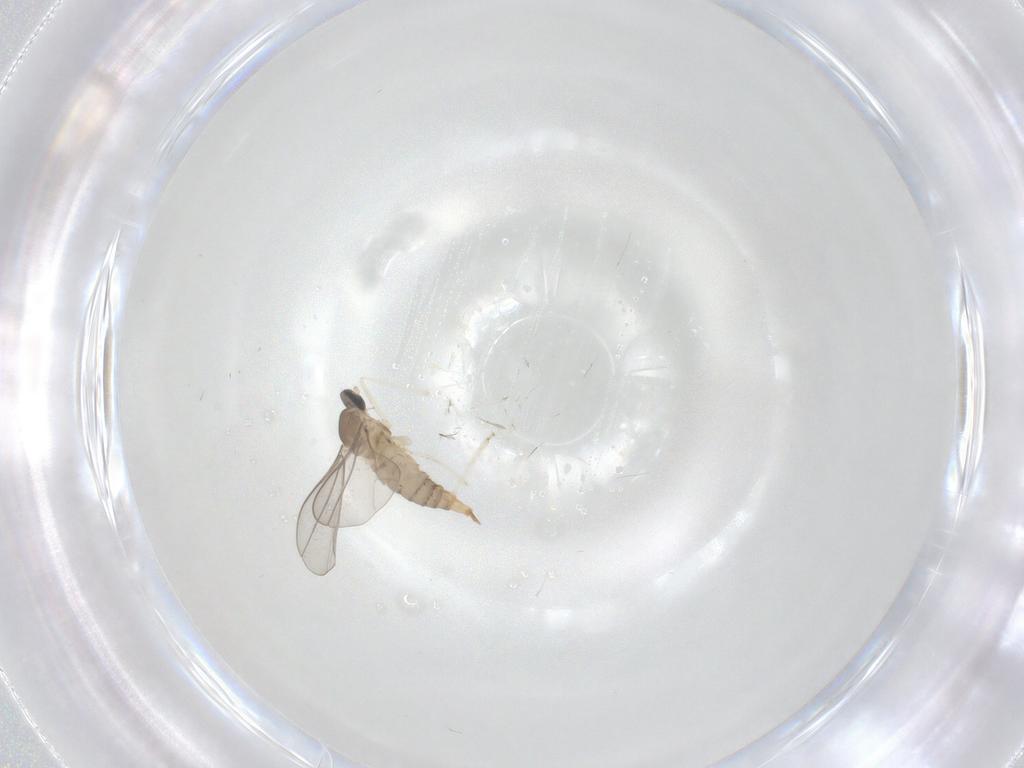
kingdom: Animalia
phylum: Arthropoda
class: Insecta
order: Diptera
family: Cecidomyiidae
